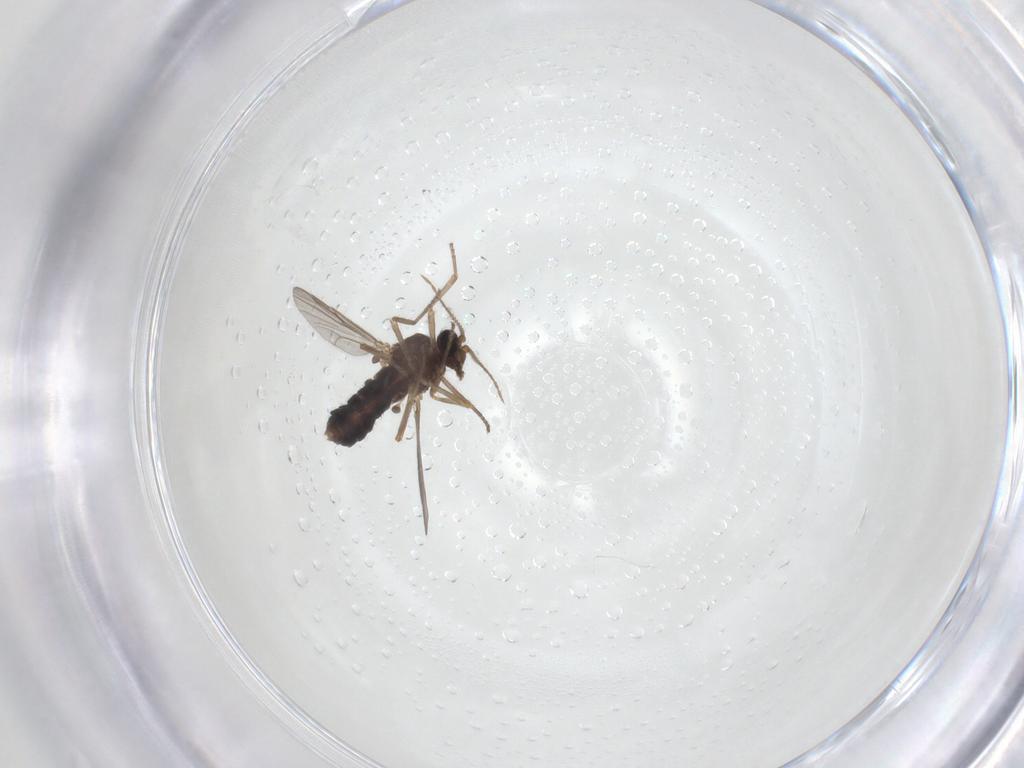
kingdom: Animalia
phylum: Arthropoda
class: Insecta
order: Diptera
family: Ceratopogonidae
